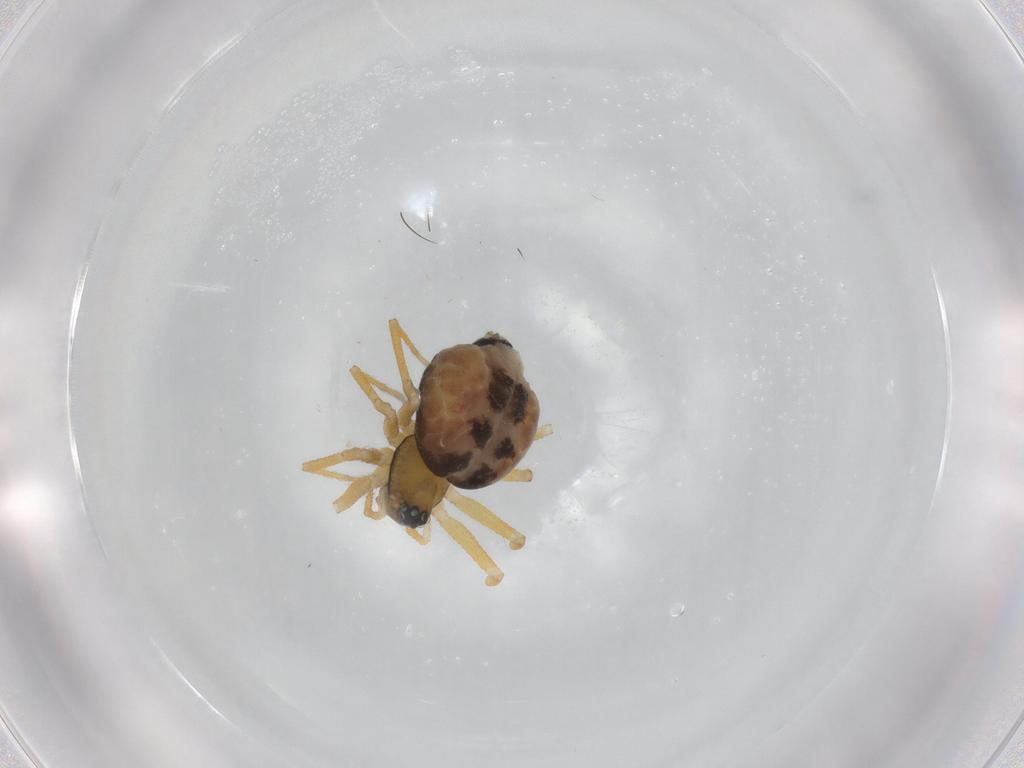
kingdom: Animalia
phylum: Arthropoda
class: Arachnida
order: Araneae
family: Linyphiidae
